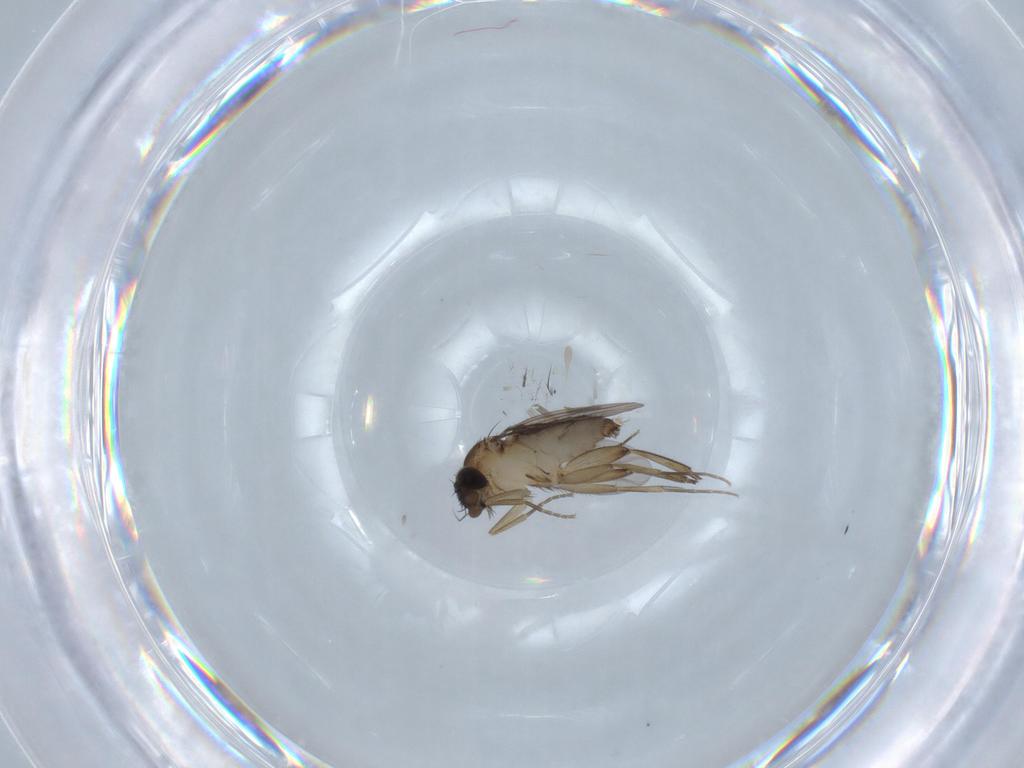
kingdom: Animalia
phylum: Arthropoda
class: Insecta
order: Diptera
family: Phoridae
